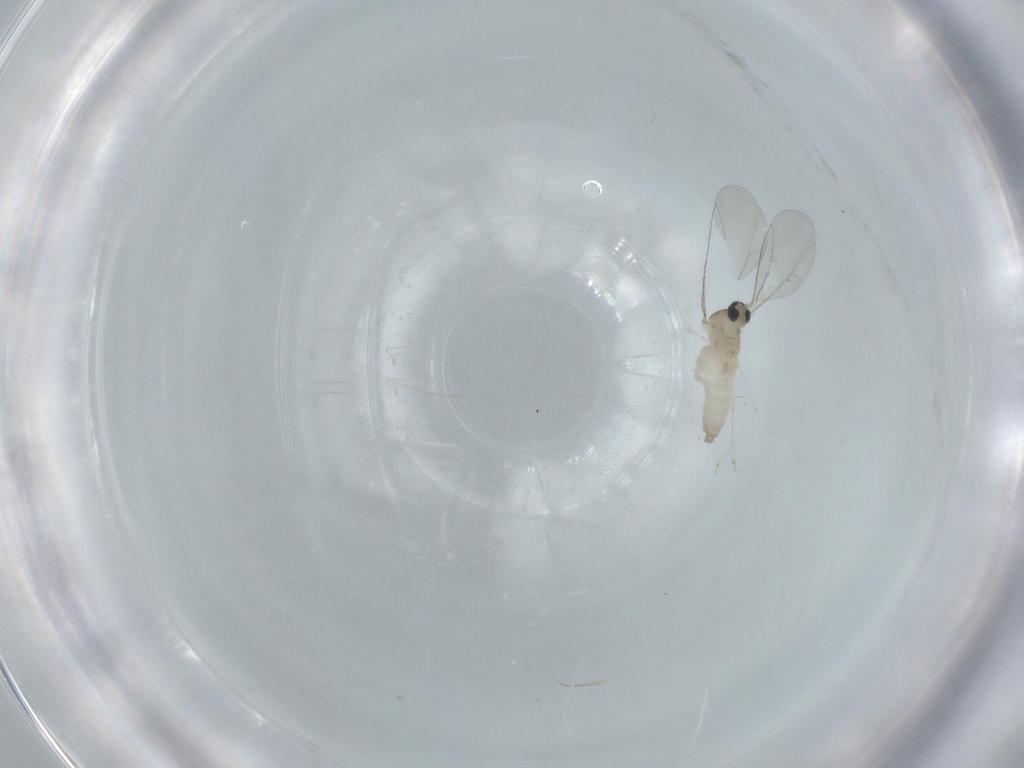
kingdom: Animalia
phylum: Arthropoda
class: Insecta
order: Diptera
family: Cecidomyiidae
